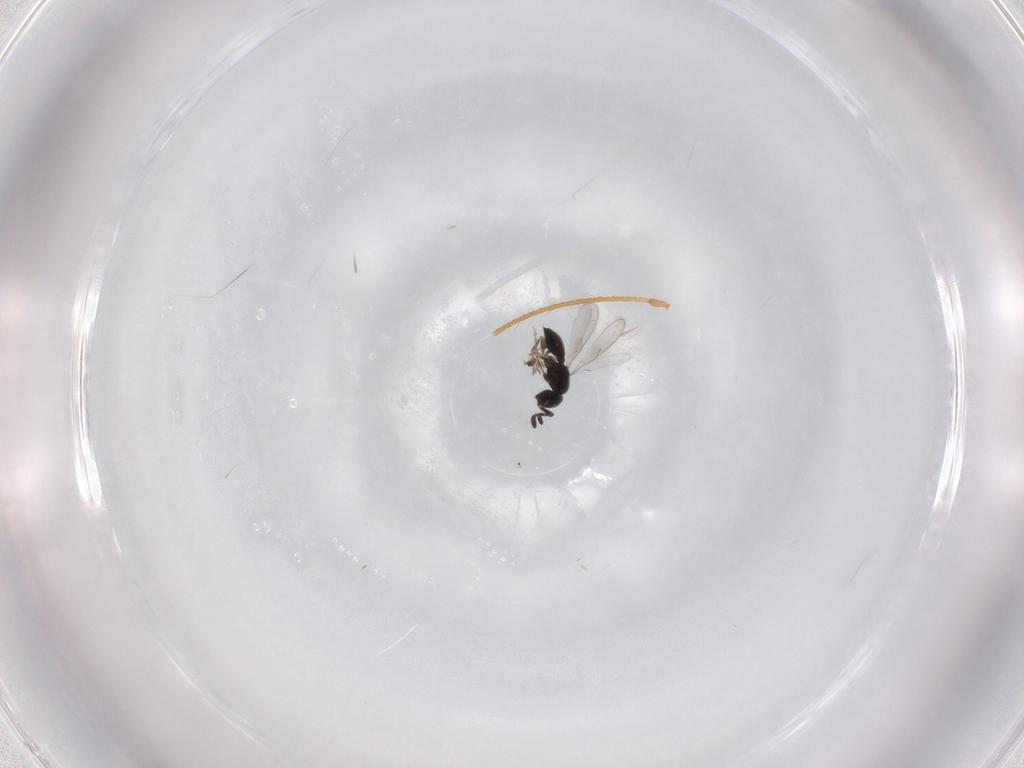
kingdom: Animalia
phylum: Arthropoda
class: Insecta
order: Hymenoptera
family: Scelionidae
